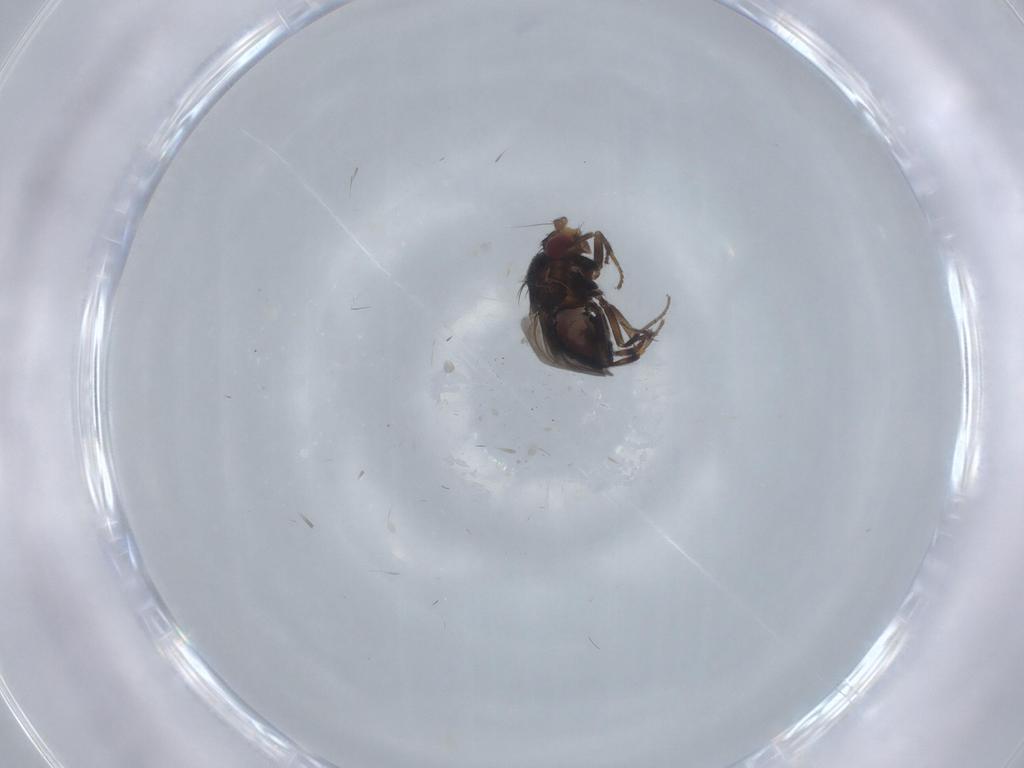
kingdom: Animalia
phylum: Arthropoda
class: Insecta
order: Diptera
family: Sphaeroceridae
